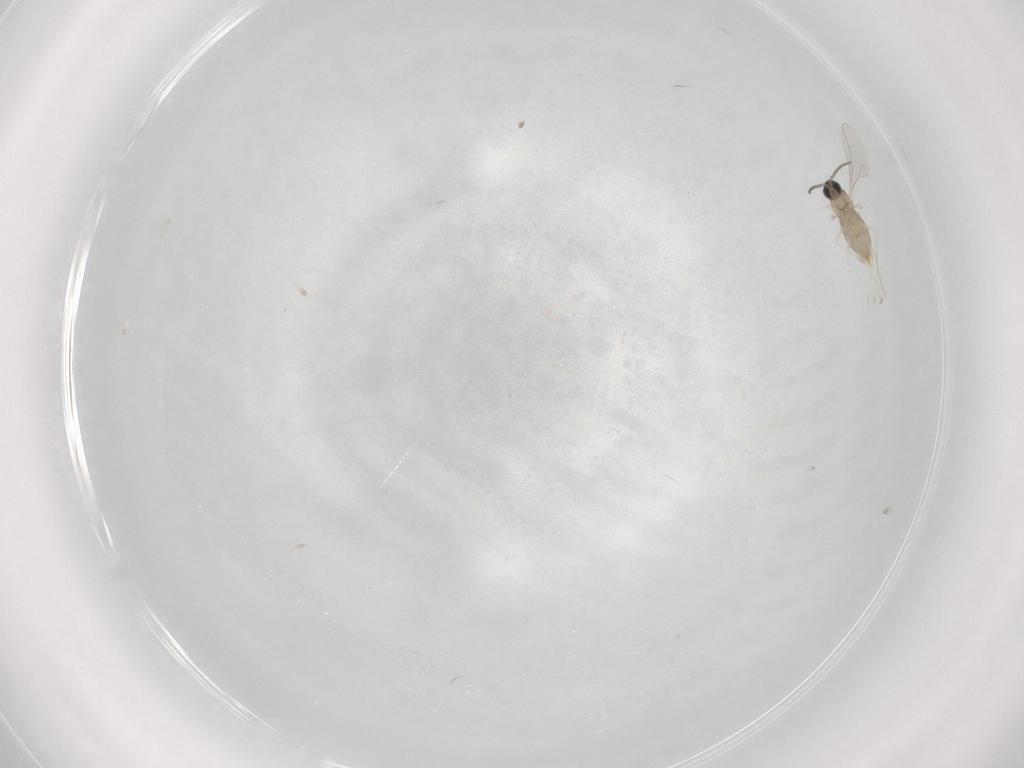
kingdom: Animalia
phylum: Arthropoda
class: Insecta
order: Diptera
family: Cecidomyiidae
